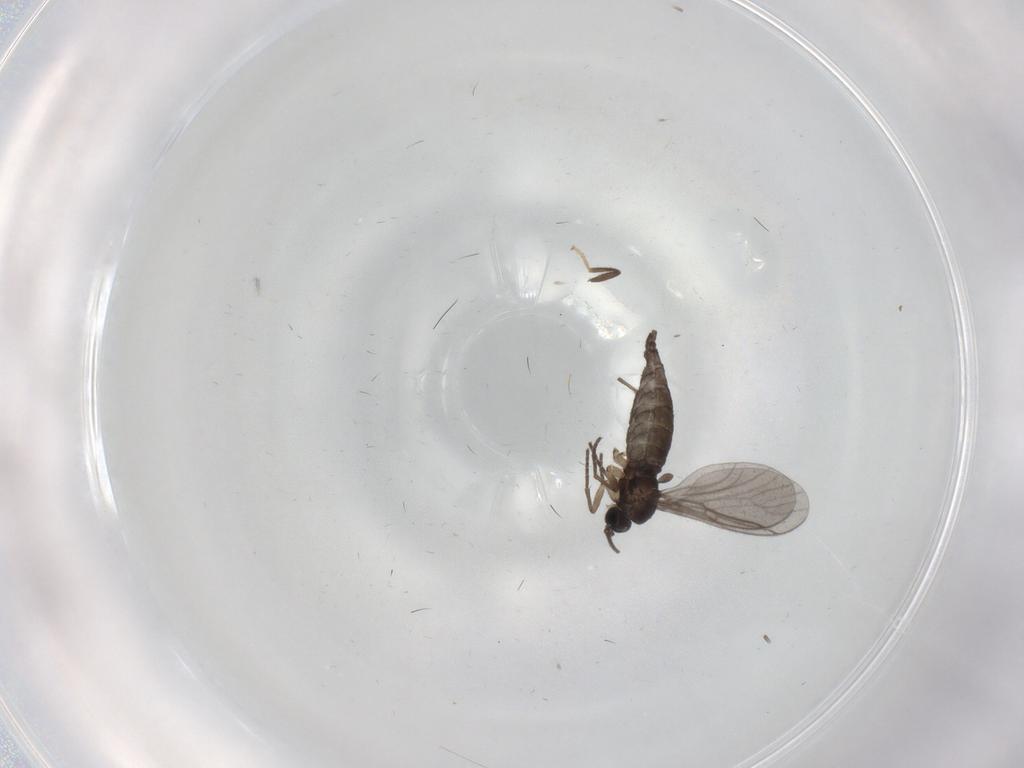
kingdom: Animalia
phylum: Arthropoda
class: Insecta
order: Diptera
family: Sciaridae
